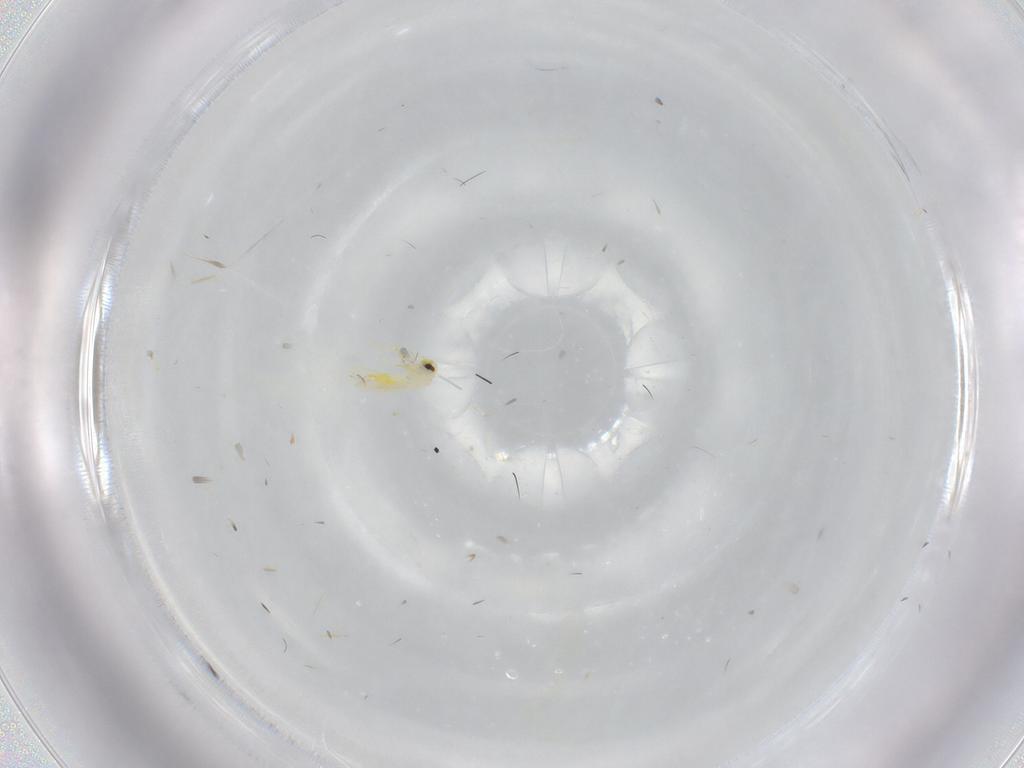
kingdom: Animalia
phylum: Arthropoda
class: Insecta
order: Hemiptera
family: Aleyrodidae
